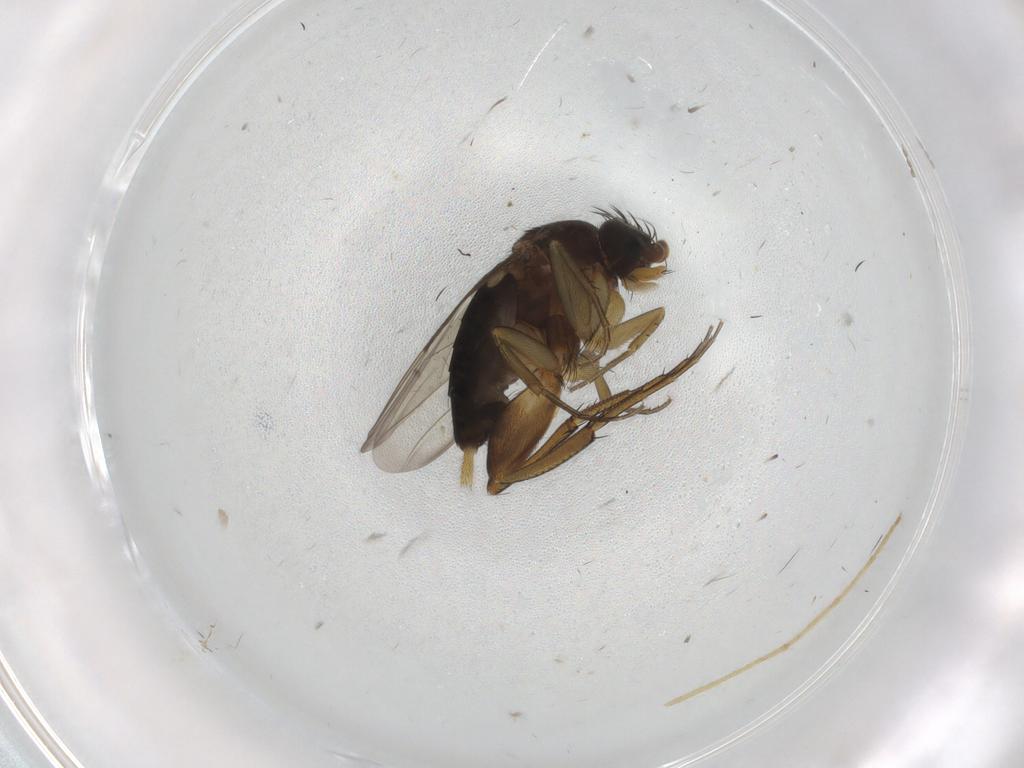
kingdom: Animalia
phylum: Arthropoda
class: Insecta
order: Diptera
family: Phoridae
